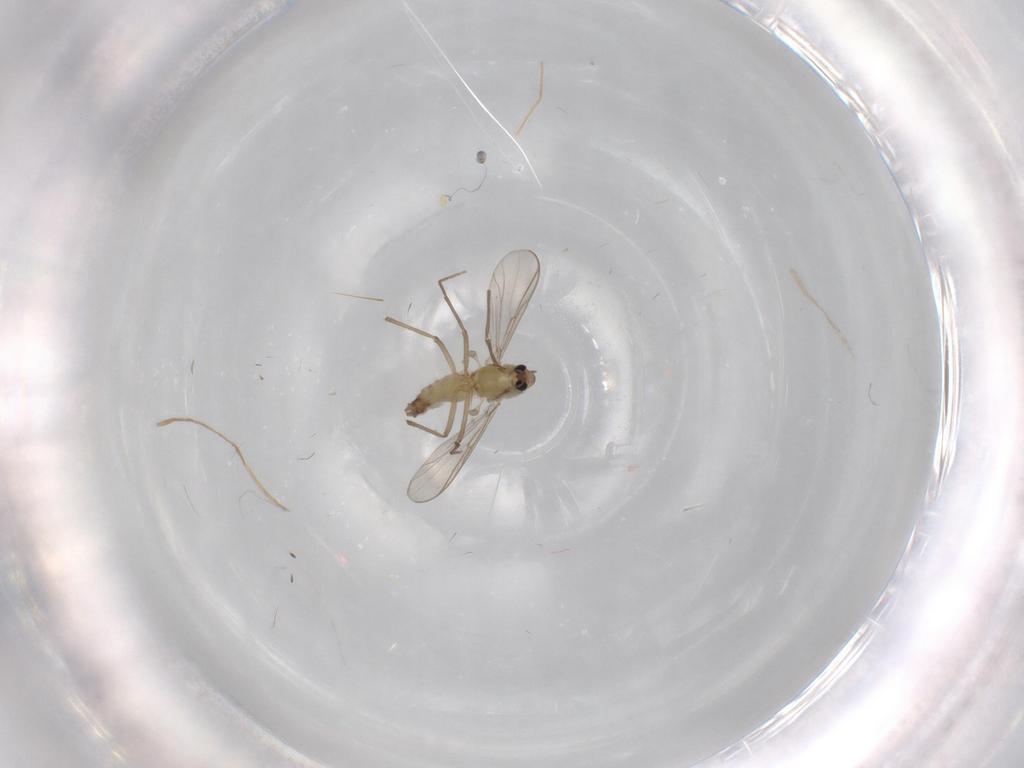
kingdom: Animalia
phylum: Arthropoda
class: Insecta
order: Diptera
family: Chironomidae
